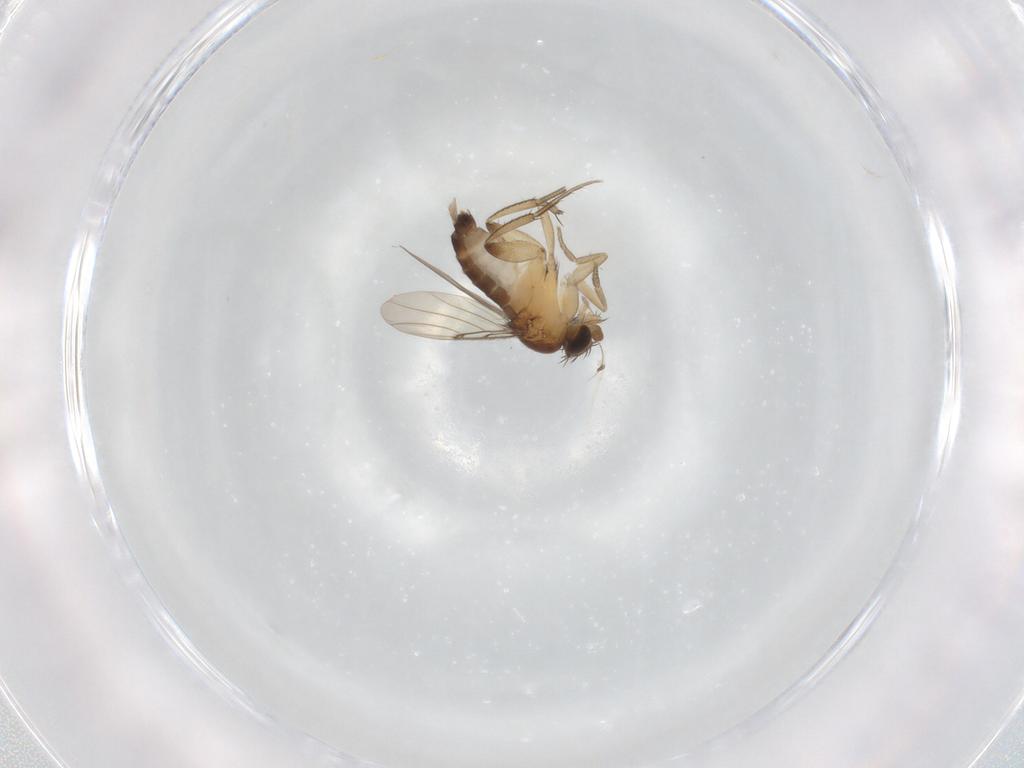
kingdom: Animalia
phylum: Arthropoda
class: Insecta
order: Diptera
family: Phoridae
